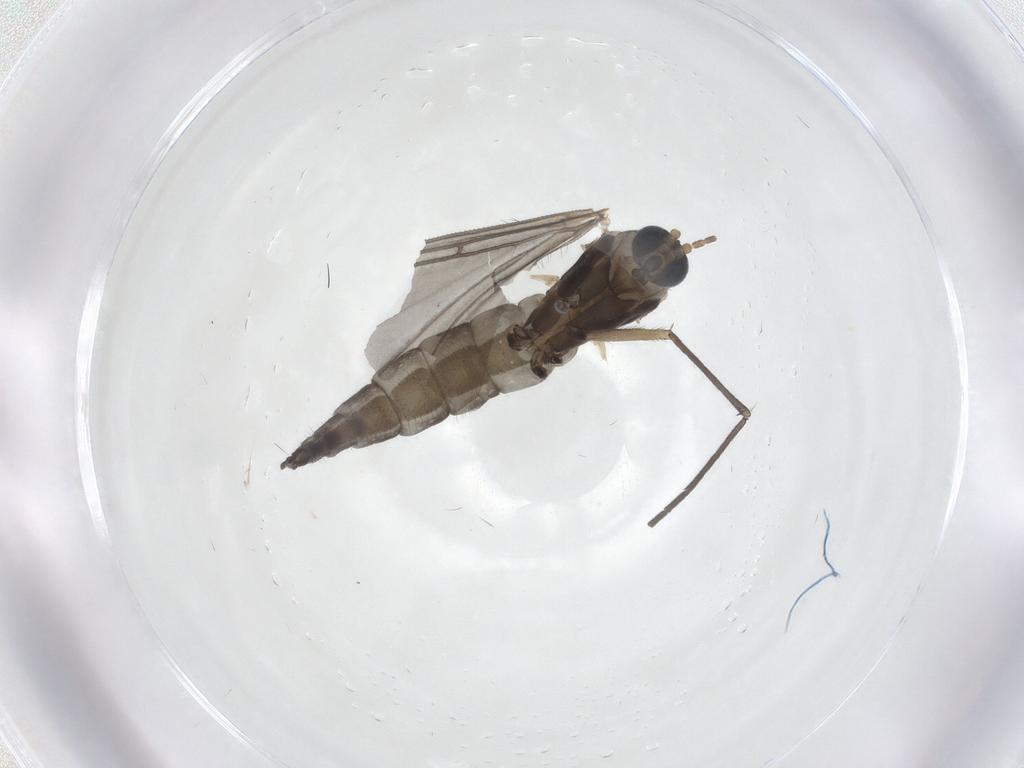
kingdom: Animalia
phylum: Arthropoda
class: Insecta
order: Diptera
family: Sciaridae
